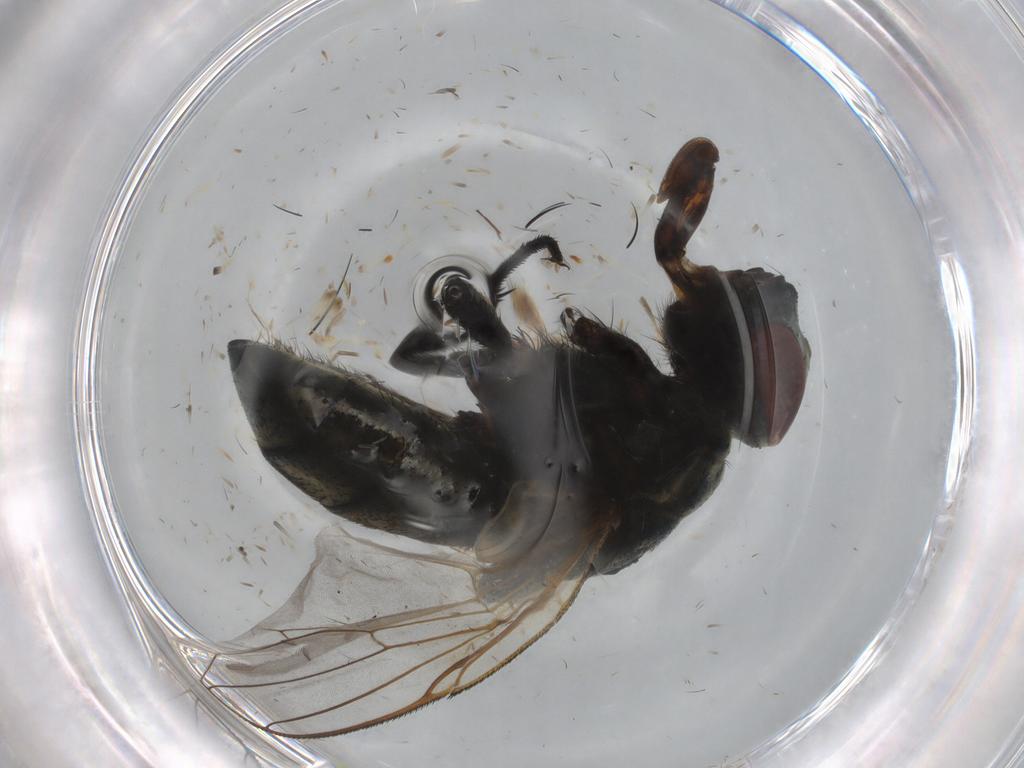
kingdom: Animalia
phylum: Arthropoda
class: Insecta
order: Diptera
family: Muscidae
